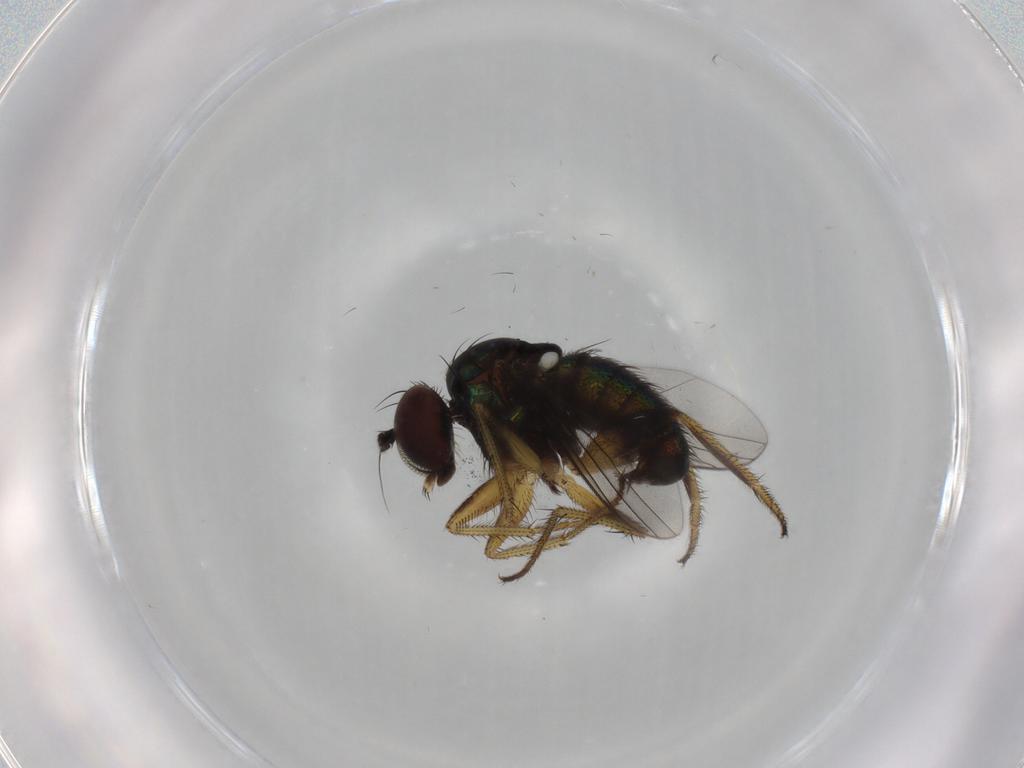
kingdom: Animalia
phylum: Arthropoda
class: Insecta
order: Diptera
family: Dolichopodidae
